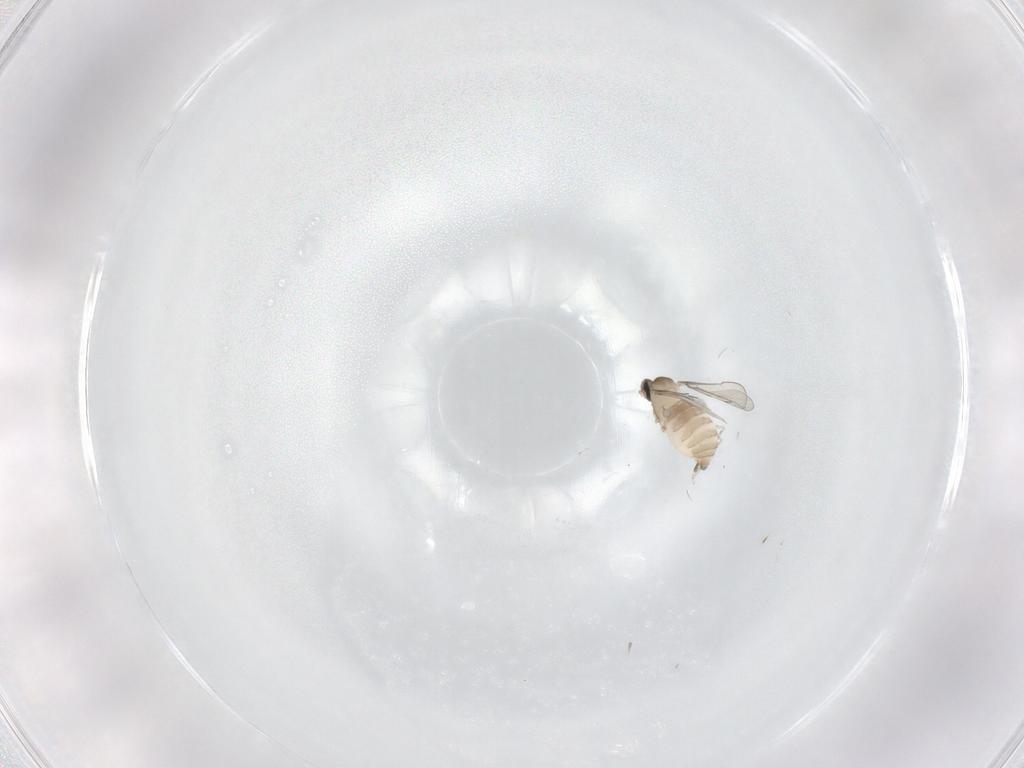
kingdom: Animalia
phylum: Arthropoda
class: Insecta
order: Diptera
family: Cecidomyiidae
